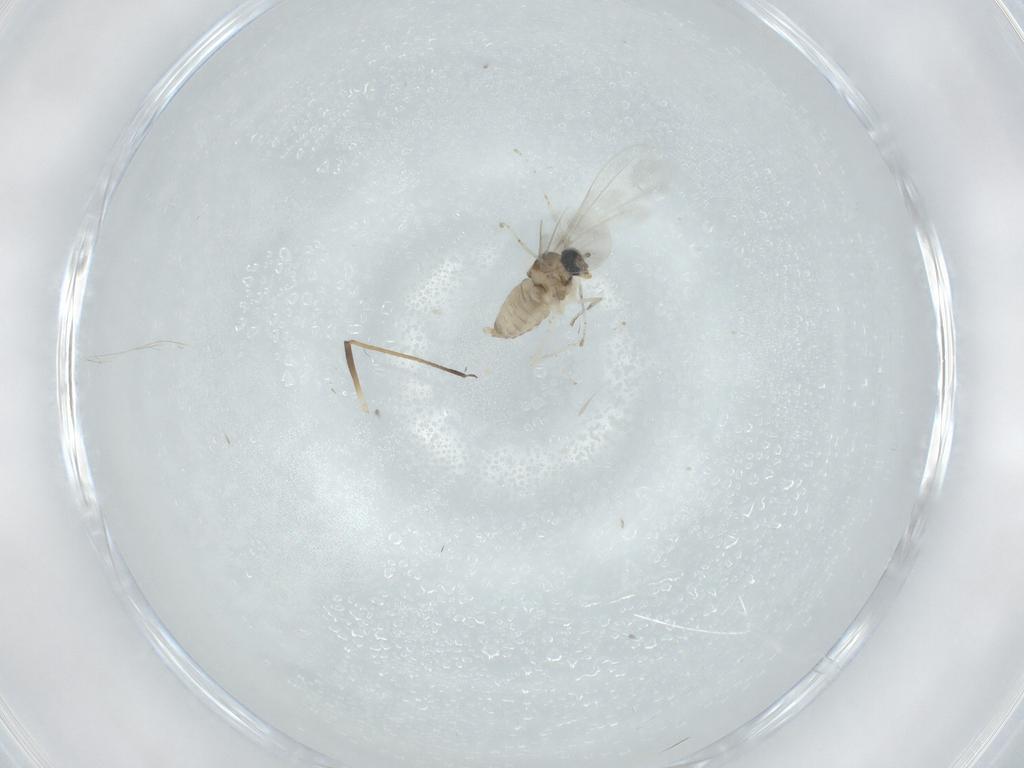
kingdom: Animalia
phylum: Arthropoda
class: Insecta
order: Diptera
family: Cecidomyiidae
